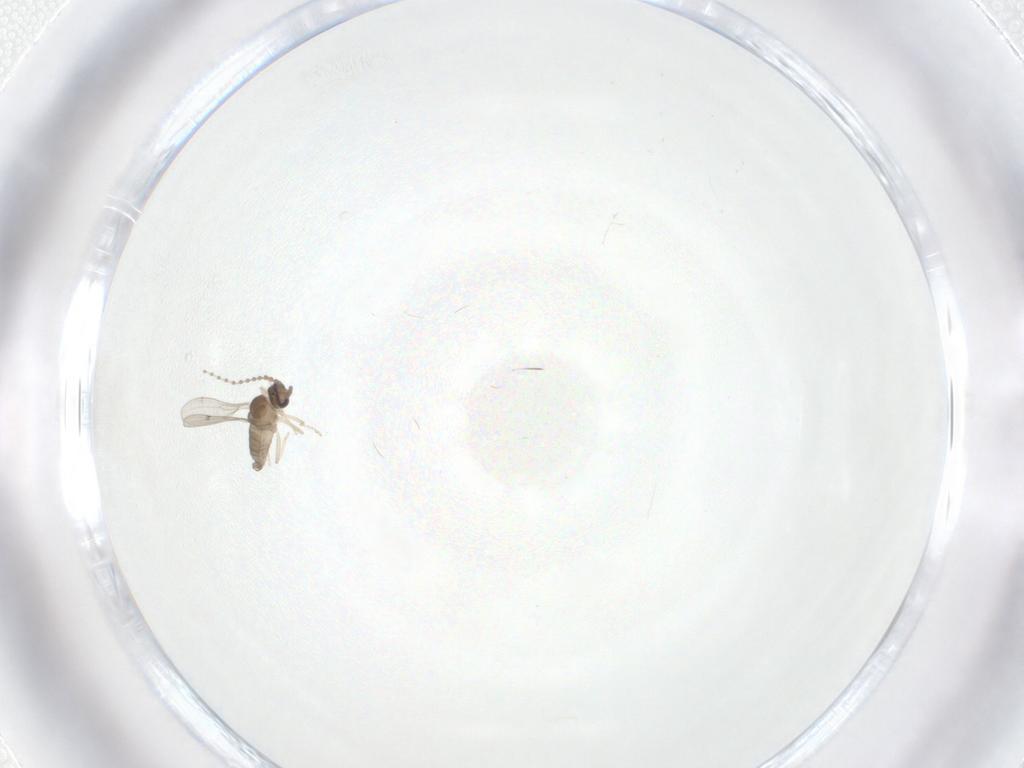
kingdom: Animalia
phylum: Arthropoda
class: Insecta
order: Diptera
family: Cecidomyiidae
